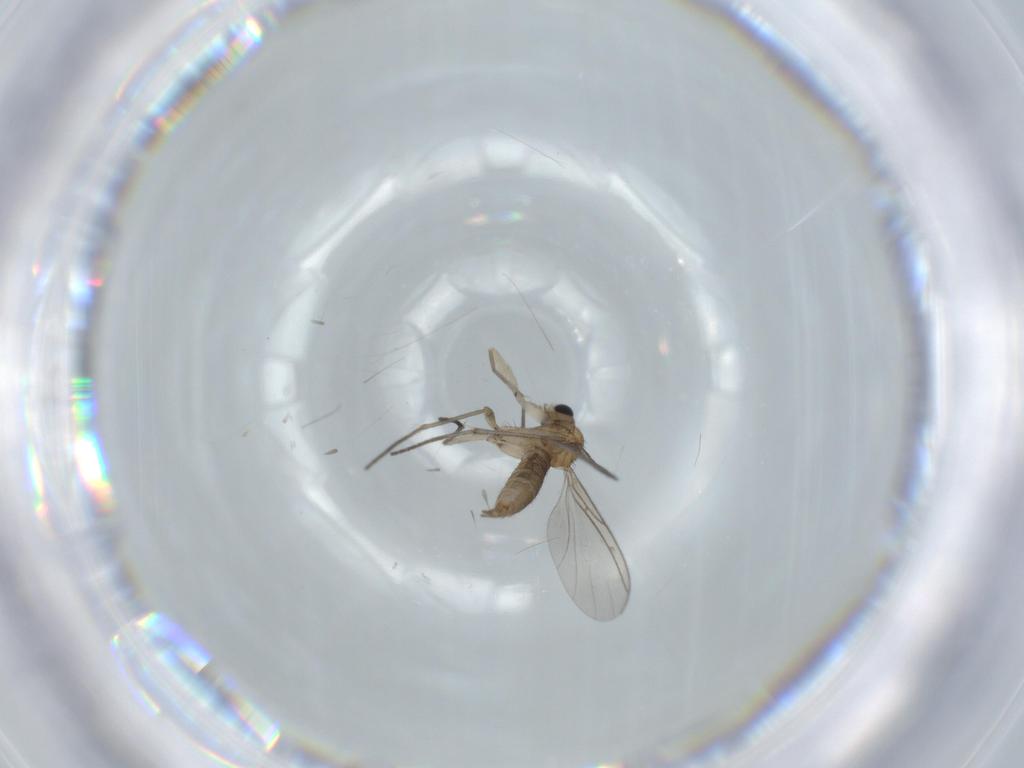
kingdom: Animalia
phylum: Arthropoda
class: Insecta
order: Diptera
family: Sciaridae
